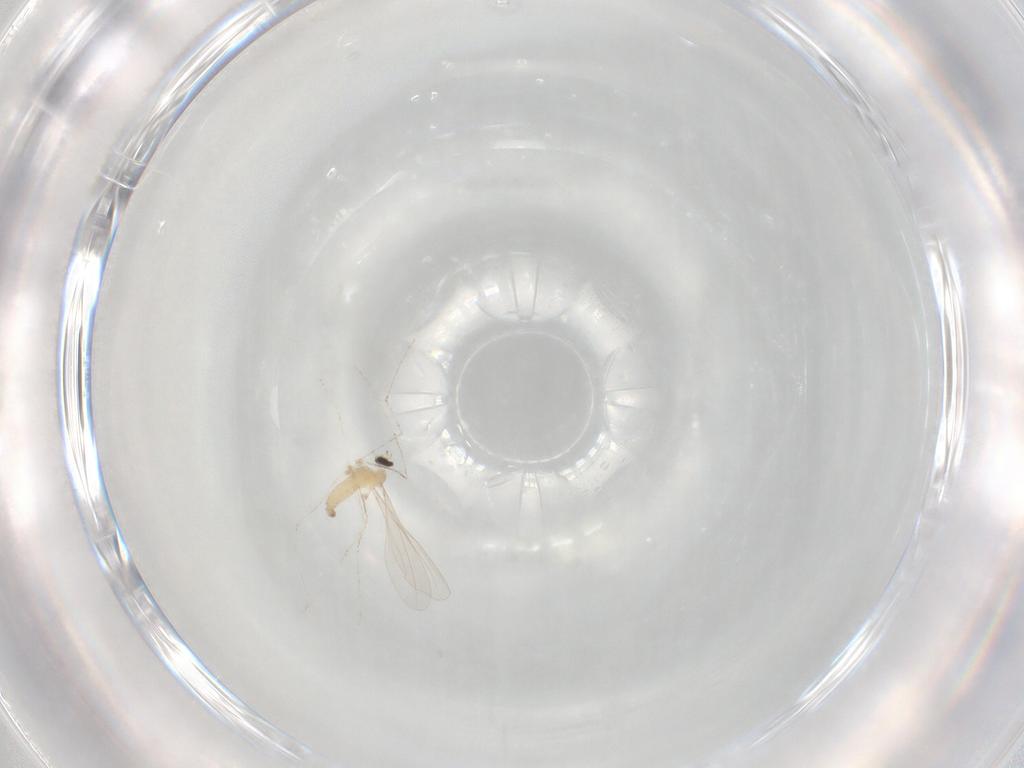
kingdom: Animalia
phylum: Arthropoda
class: Insecta
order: Diptera
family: Cecidomyiidae
